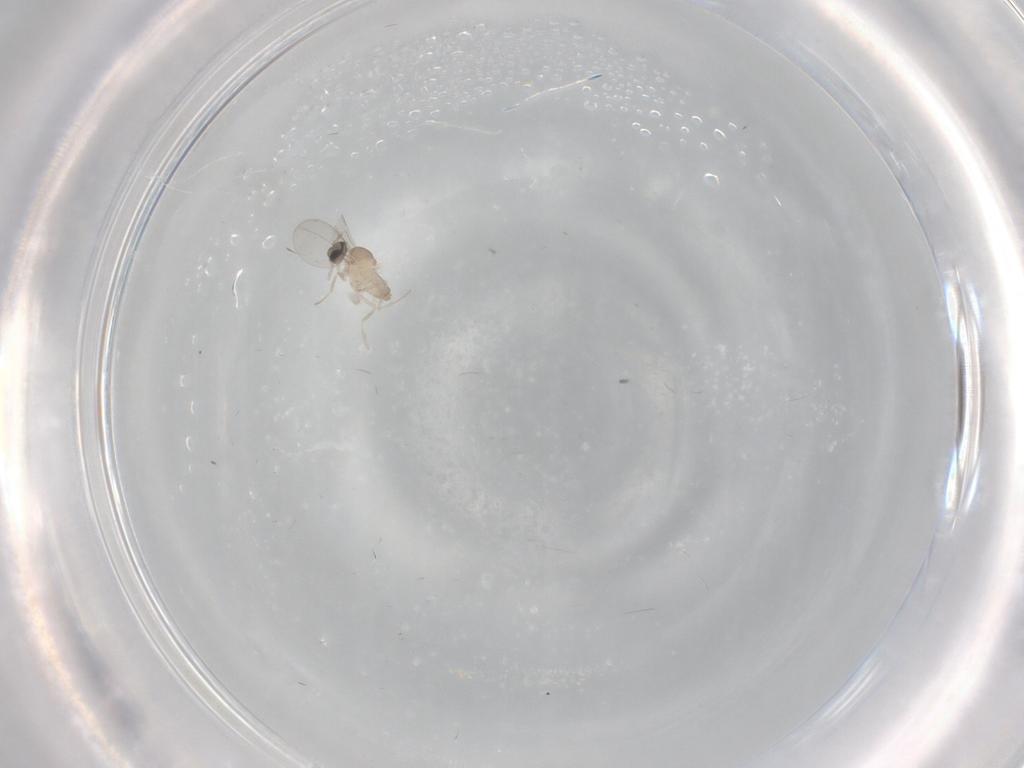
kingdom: Animalia
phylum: Arthropoda
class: Insecta
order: Diptera
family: Cecidomyiidae
